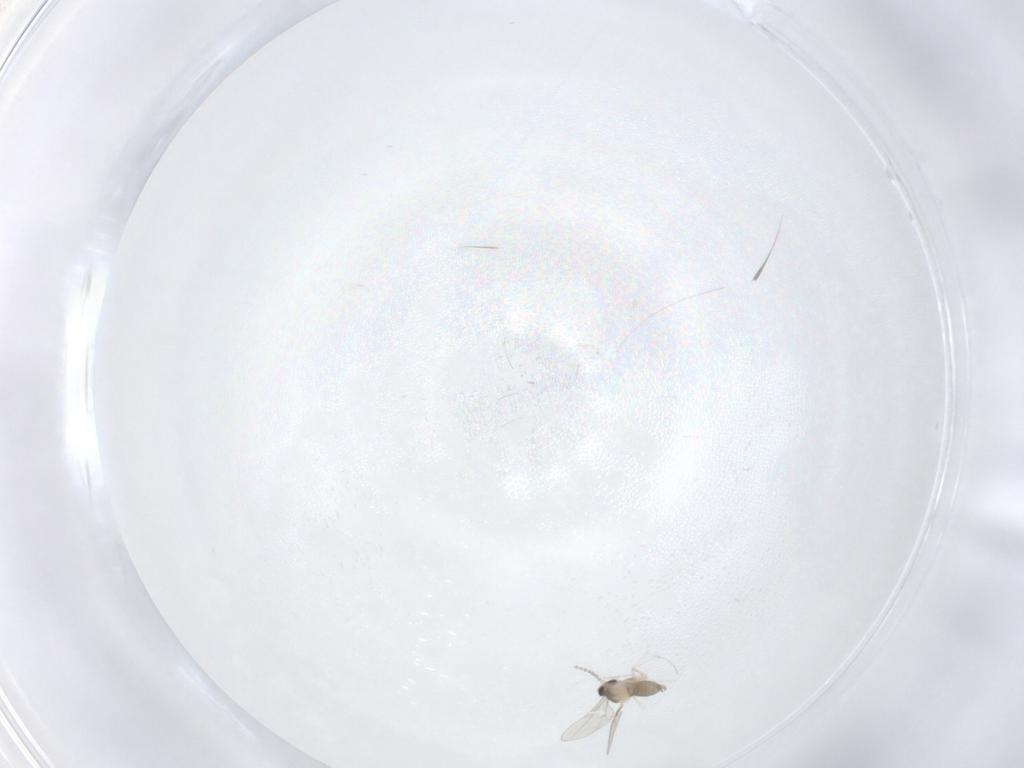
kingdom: Animalia
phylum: Arthropoda
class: Insecta
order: Diptera
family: Cecidomyiidae
